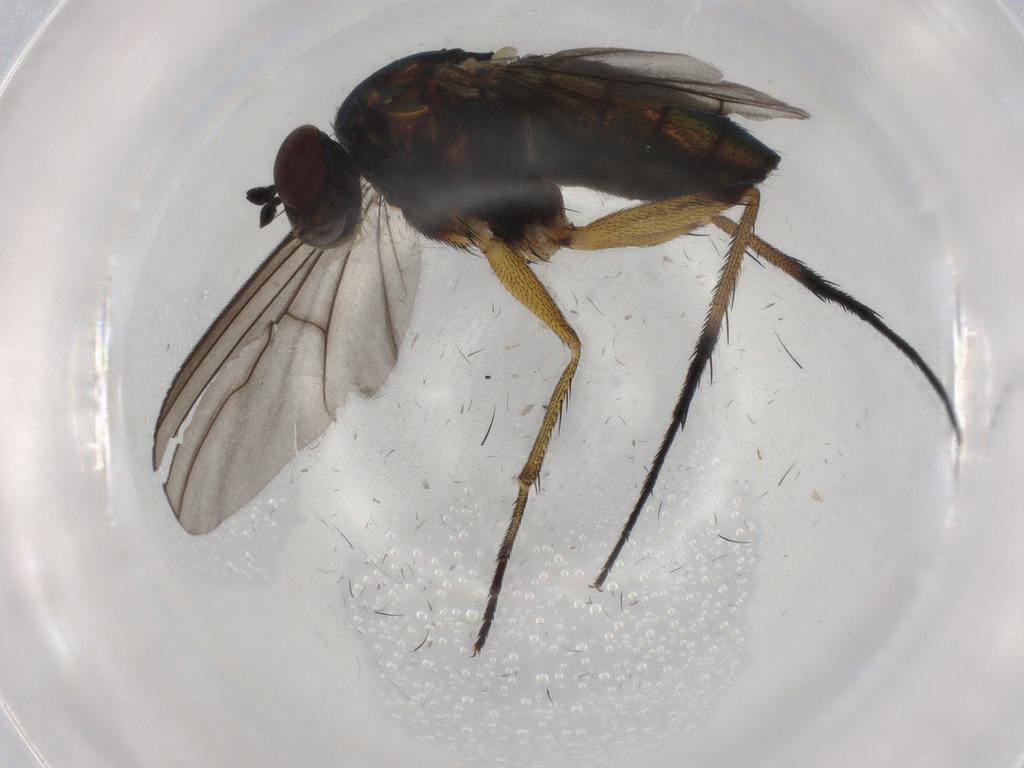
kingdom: Animalia
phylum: Arthropoda
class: Insecta
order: Diptera
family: Dolichopodidae
